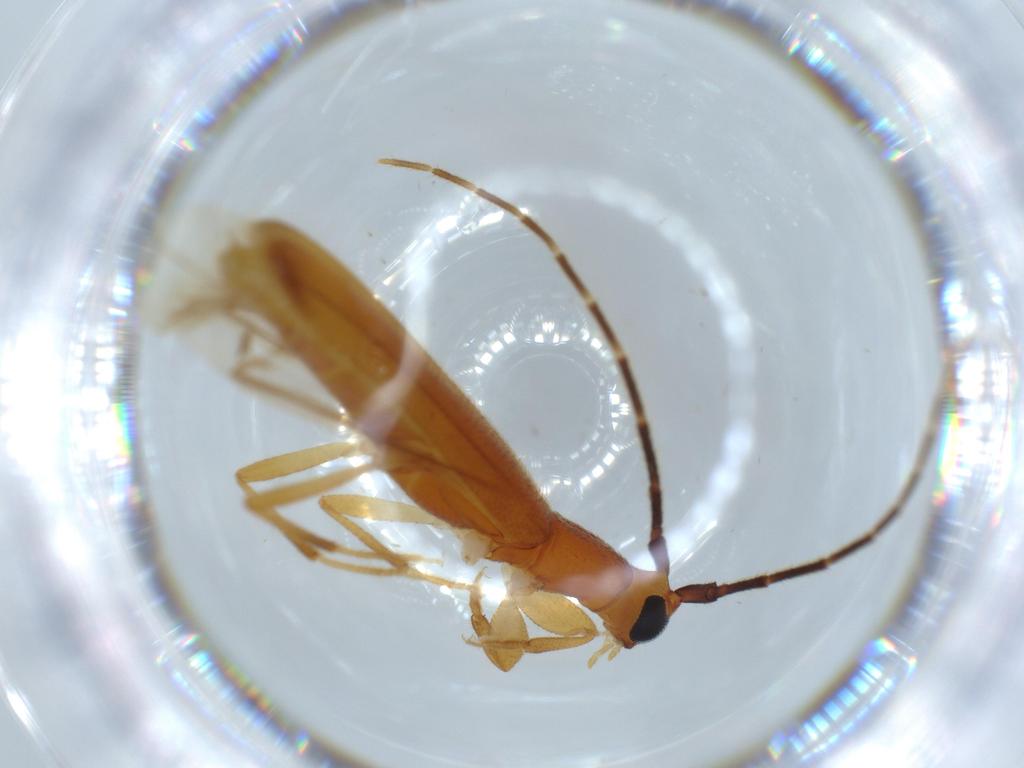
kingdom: Animalia
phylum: Arthropoda
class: Insecta
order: Coleoptera
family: Cerambycidae
